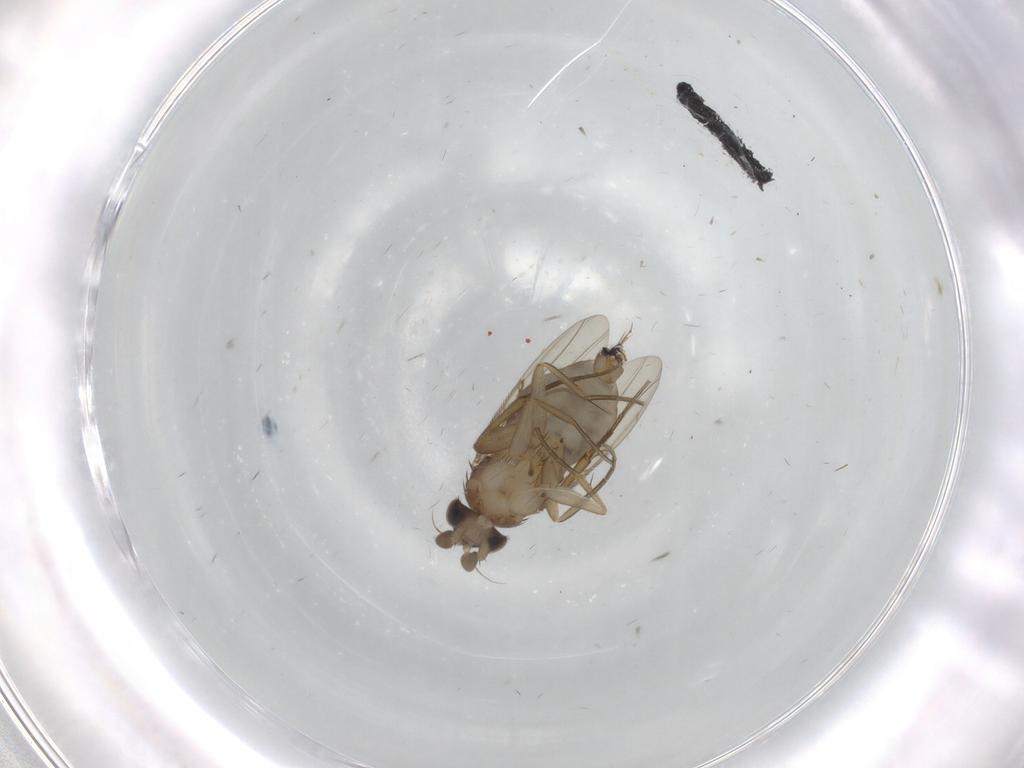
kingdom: Animalia
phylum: Arthropoda
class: Insecta
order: Diptera
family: Phoridae
